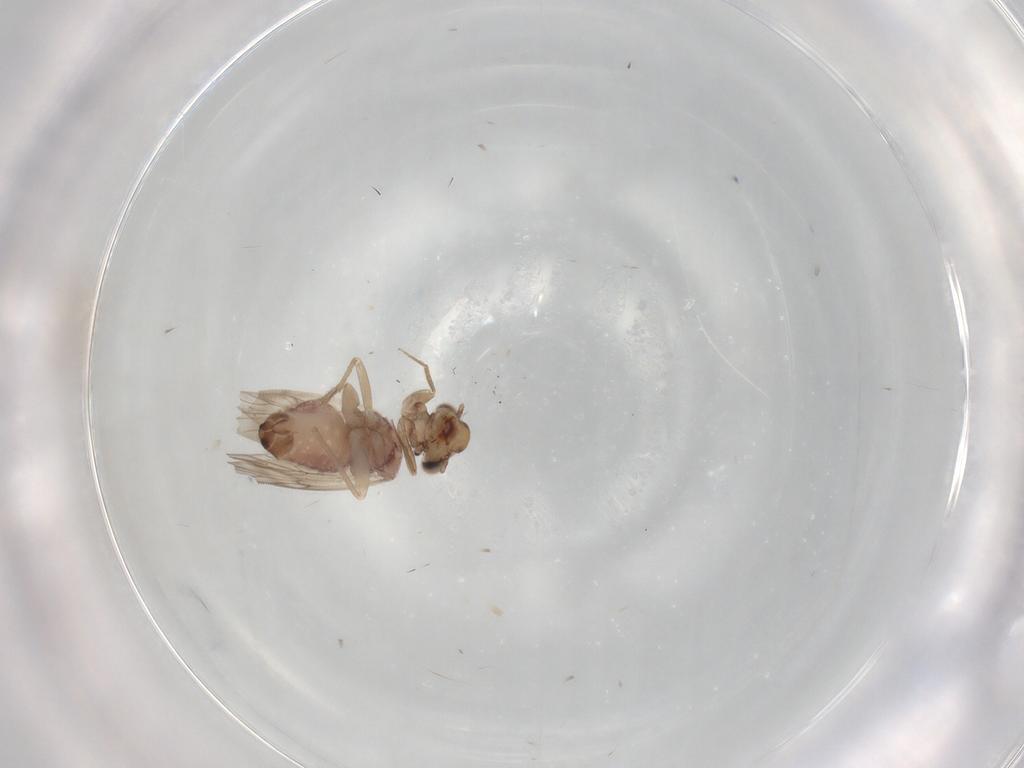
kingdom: Animalia
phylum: Arthropoda
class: Insecta
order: Psocodea
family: Lepidopsocidae
